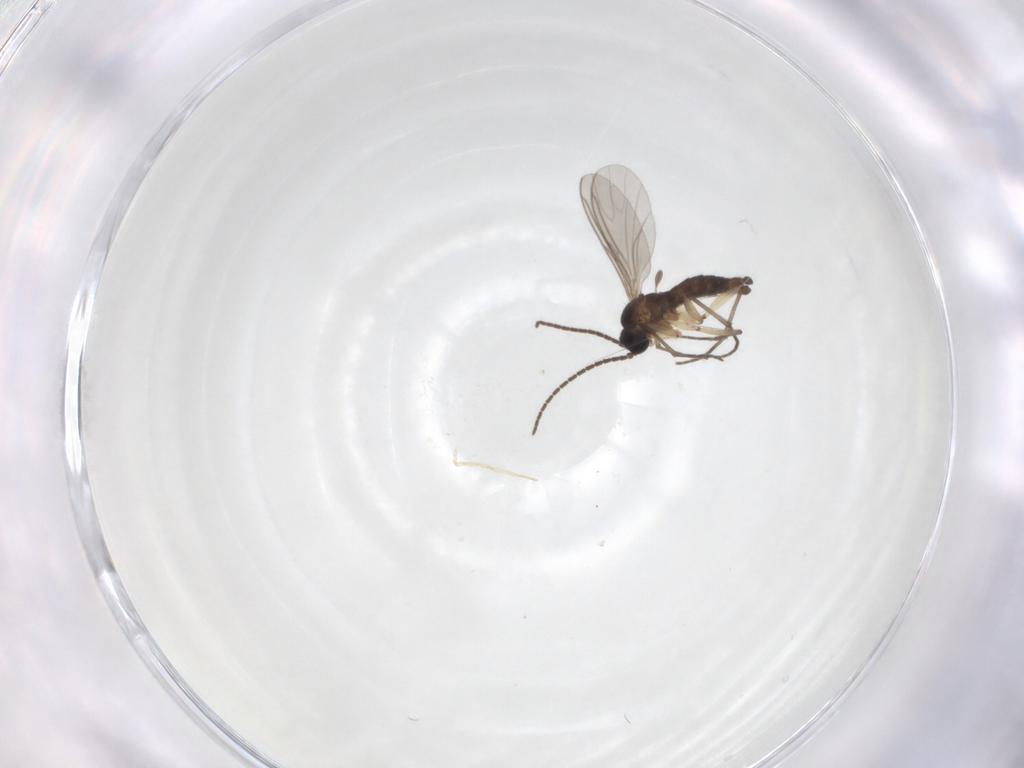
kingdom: Animalia
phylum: Arthropoda
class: Insecta
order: Diptera
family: Sciaridae
